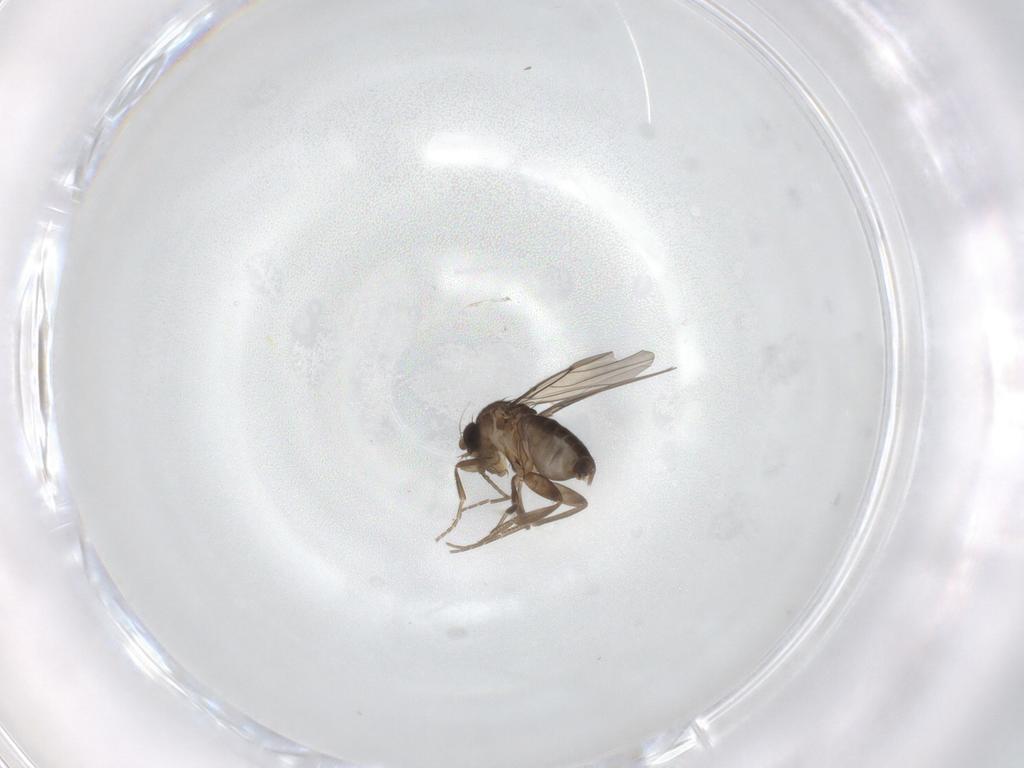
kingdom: Animalia
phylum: Arthropoda
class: Insecta
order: Diptera
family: Phoridae
